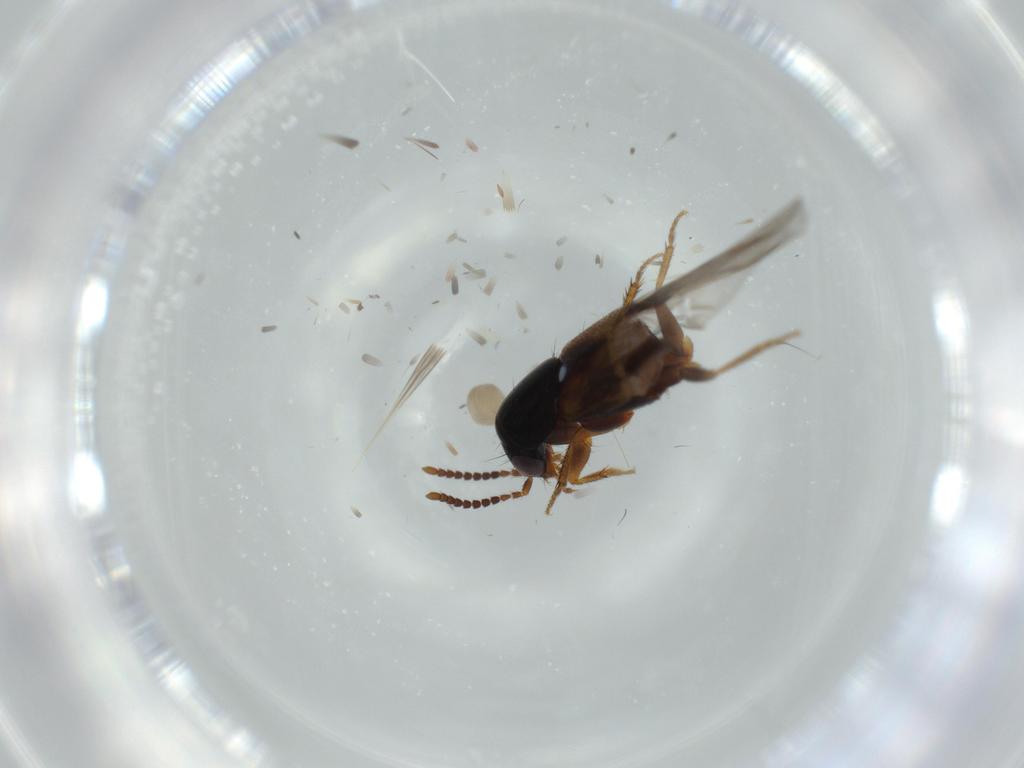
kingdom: Animalia
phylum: Arthropoda
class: Insecta
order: Coleoptera
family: Staphylinidae
